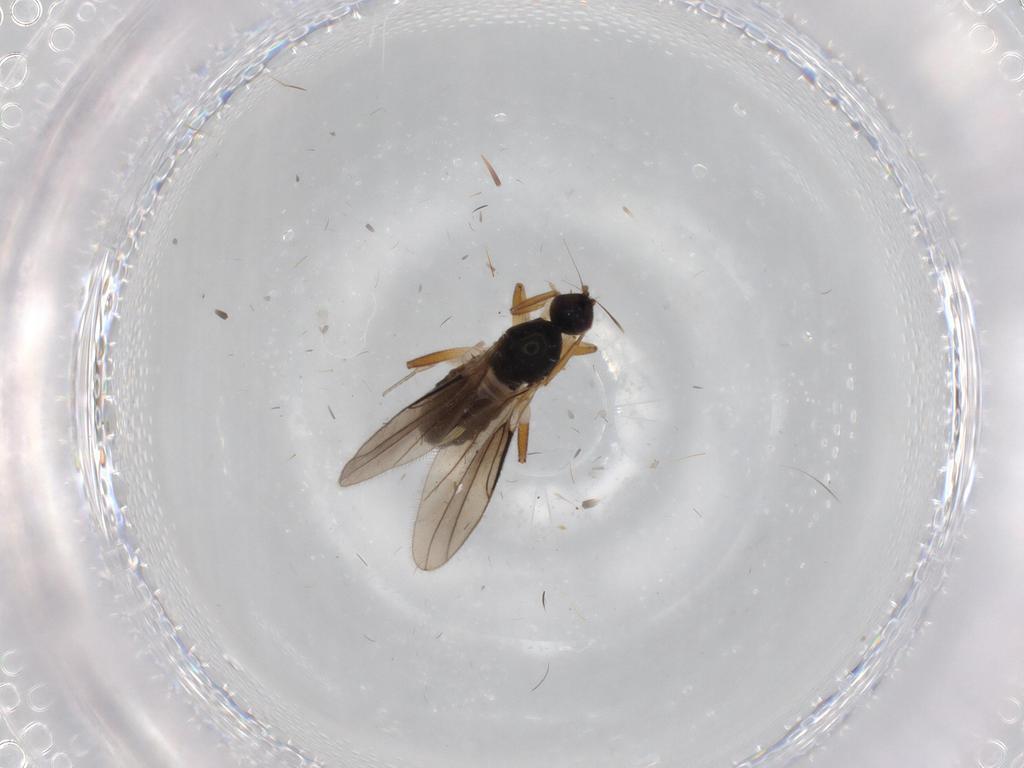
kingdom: Animalia
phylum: Arthropoda
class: Insecta
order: Diptera
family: Hybotidae
